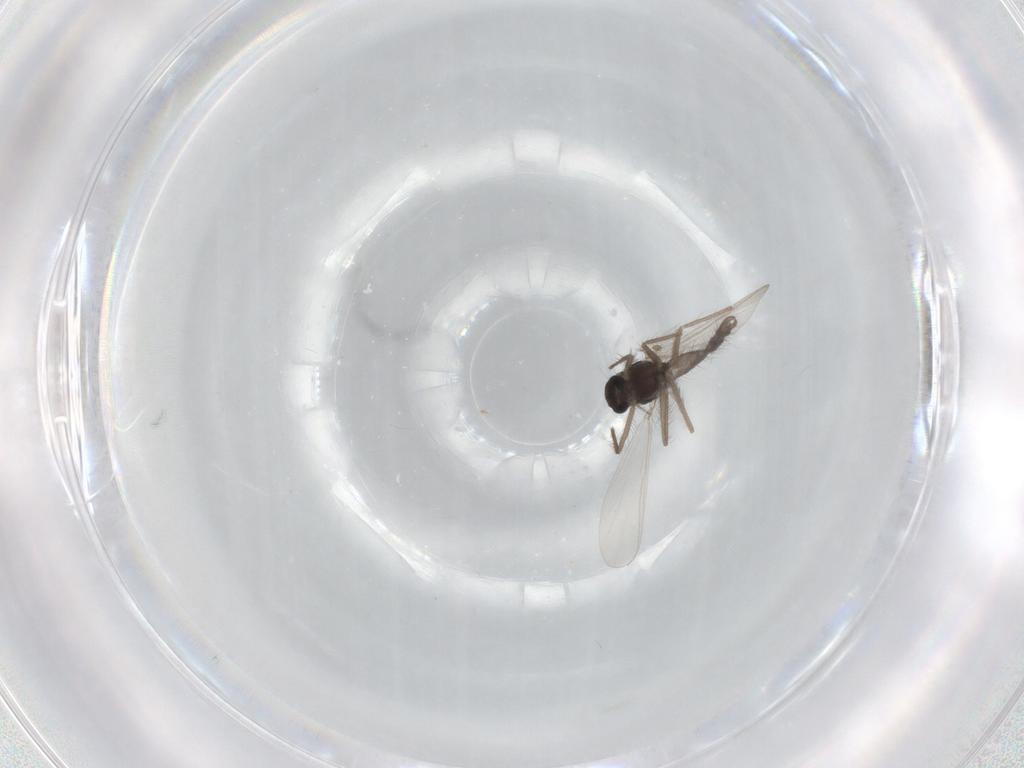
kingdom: Animalia
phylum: Arthropoda
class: Insecta
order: Diptera
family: Chironomidae
